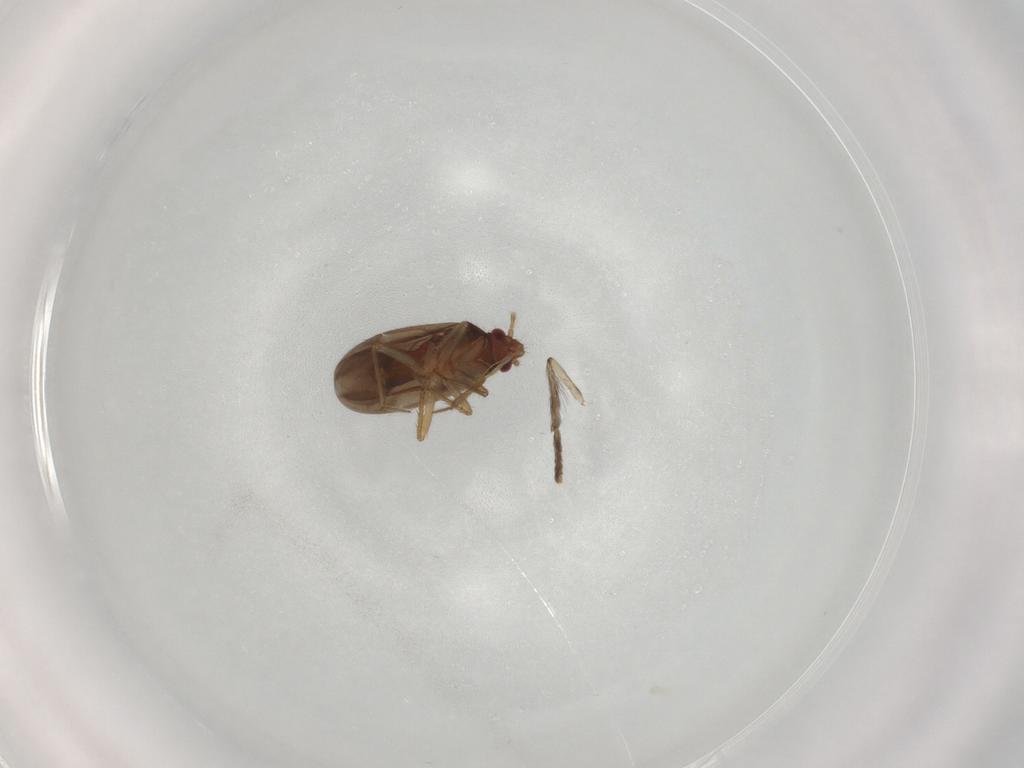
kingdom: Animalia
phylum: Arthropoda
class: Insecta
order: Hemiptera
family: Ceratocombidae
